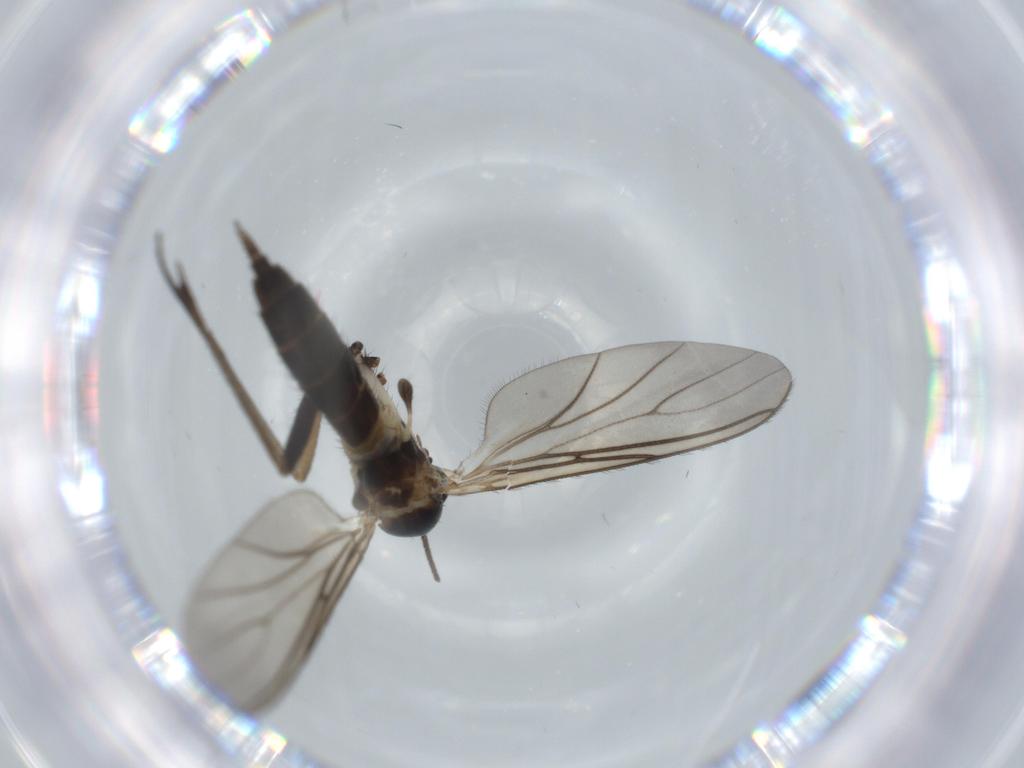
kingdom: Animalia
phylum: Arthropoda
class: Insecta
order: Diptera
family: Sciaridae
